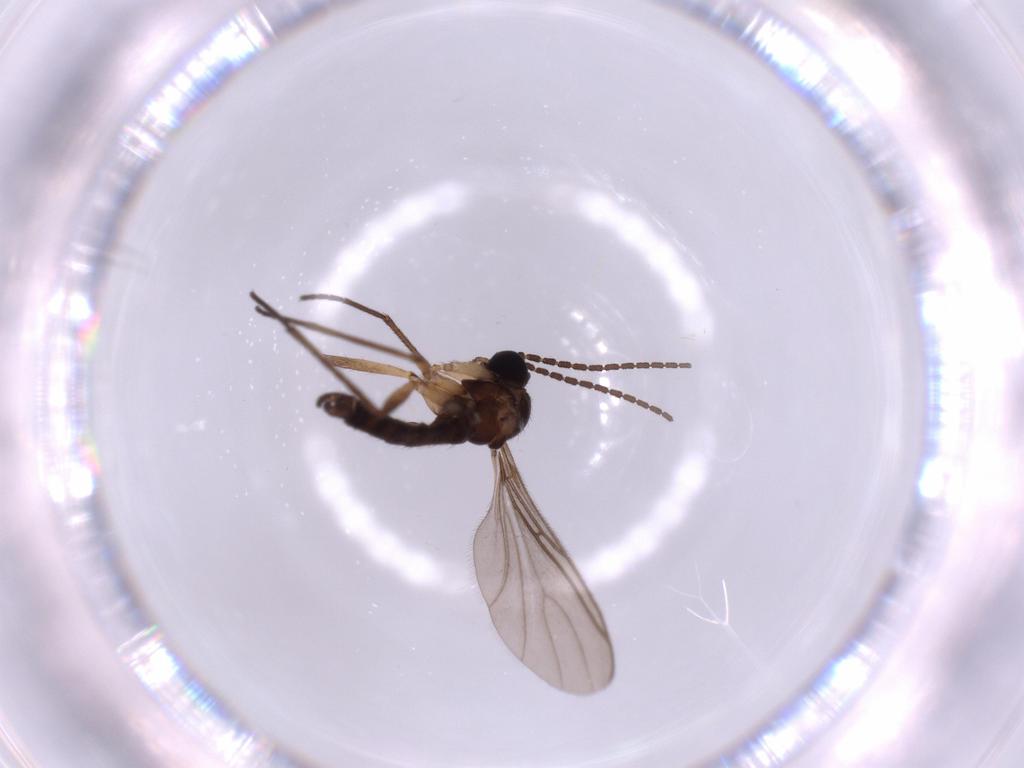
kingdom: Animalia
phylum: Arthropoda
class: Insecta
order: Diptera
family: Sciaridae
